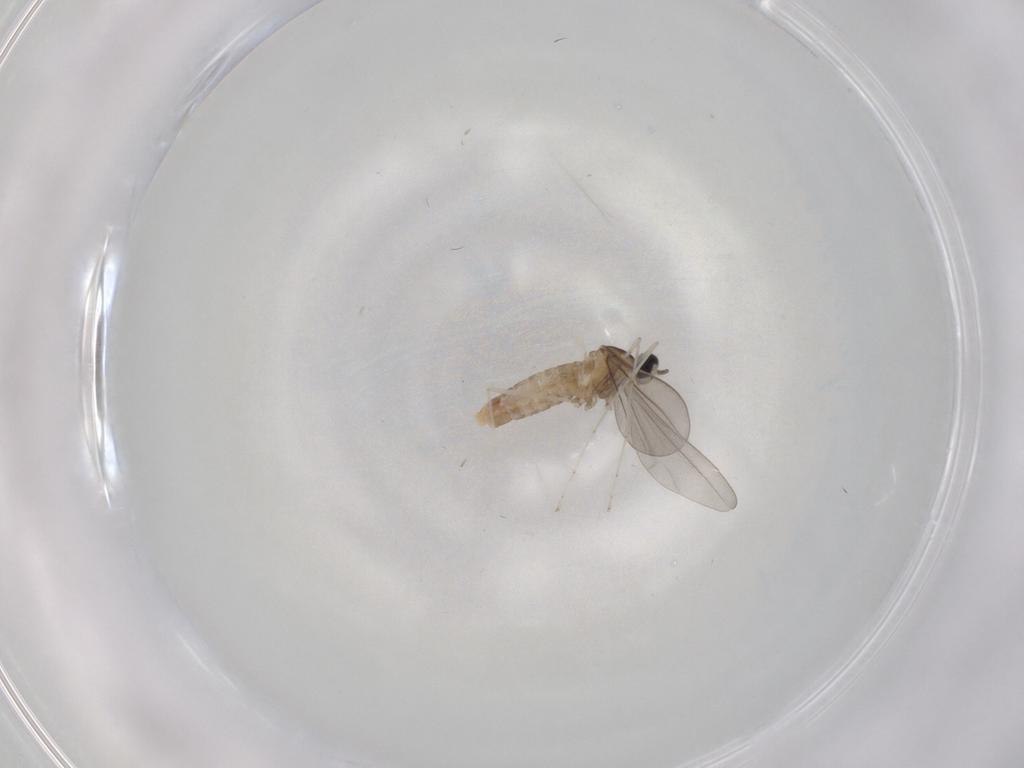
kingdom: Animalia
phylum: Arthropoda
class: Insecta
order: Diptera
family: Cecidomyiidae
